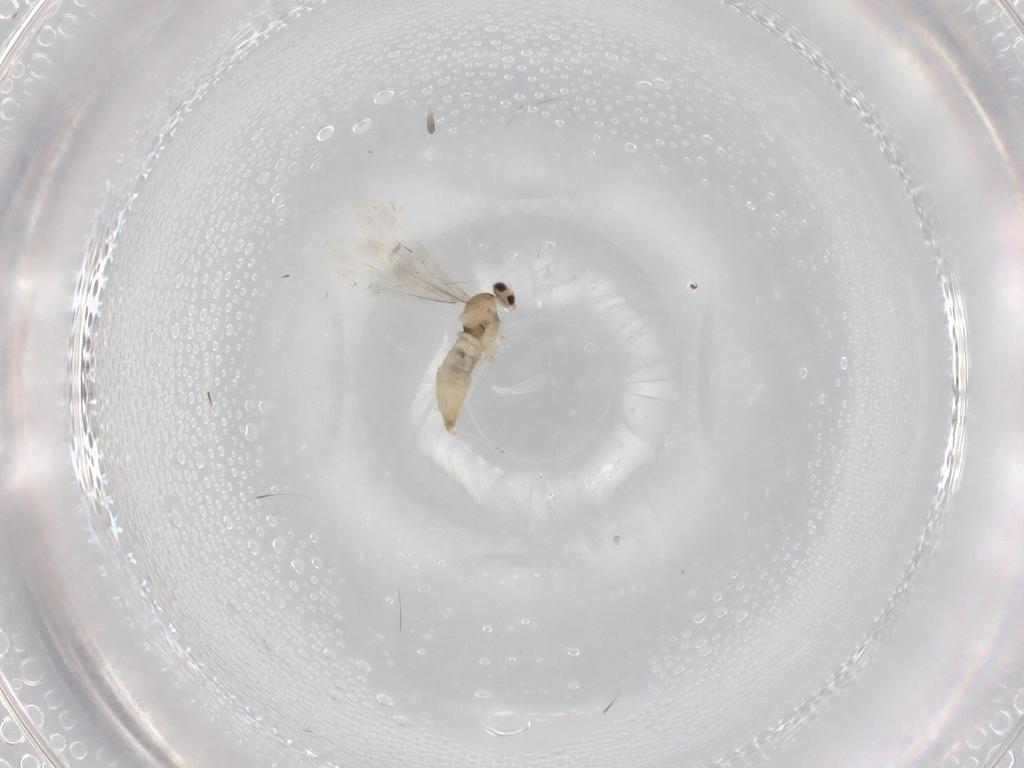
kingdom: Animalia
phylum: Arthropoda
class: Insecta
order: Diptera
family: Cecidomyiidae
